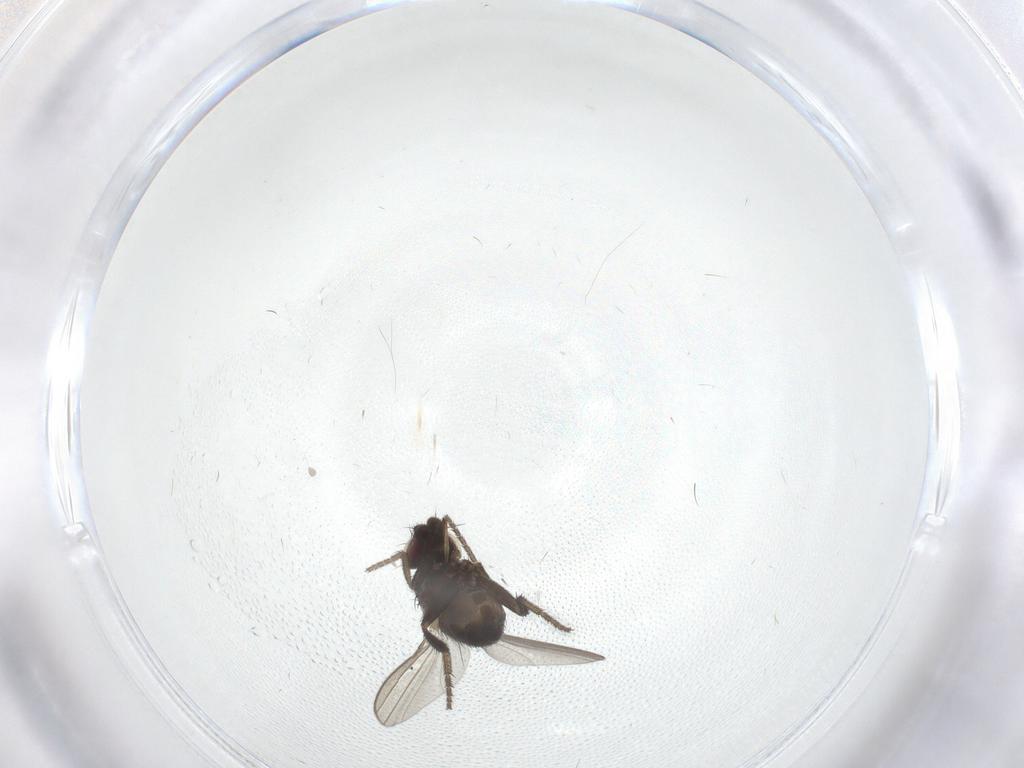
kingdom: Animalia
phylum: Arthropoda
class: Insecta
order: Diptera
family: Milichiidae
